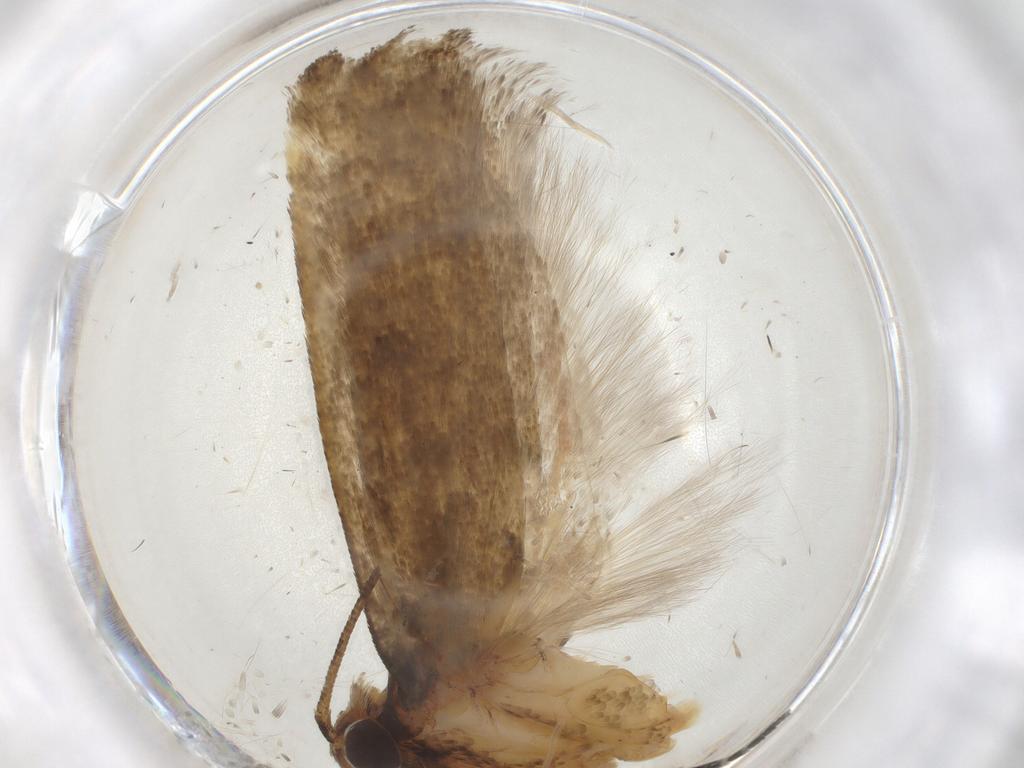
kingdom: Animalia
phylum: Arthropoda
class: Insecta
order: Lepidoptera
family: Gelechiidae
